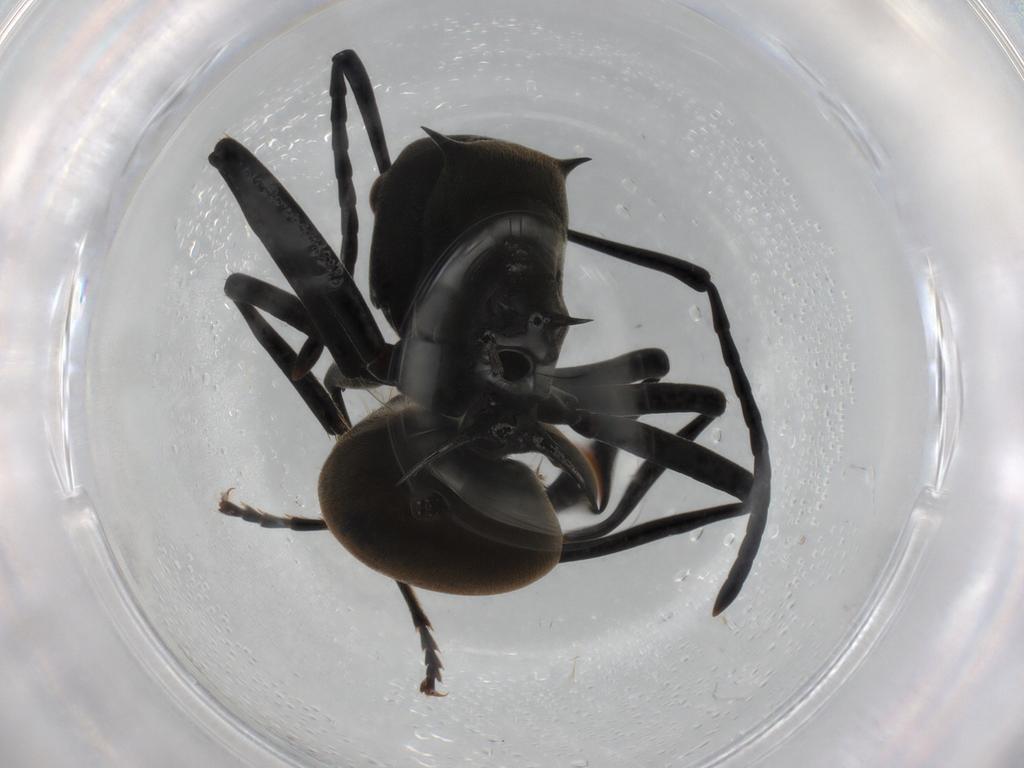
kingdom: Animalia
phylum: Arthropoda
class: Insecta
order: Hymenoptera
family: Formicidae
